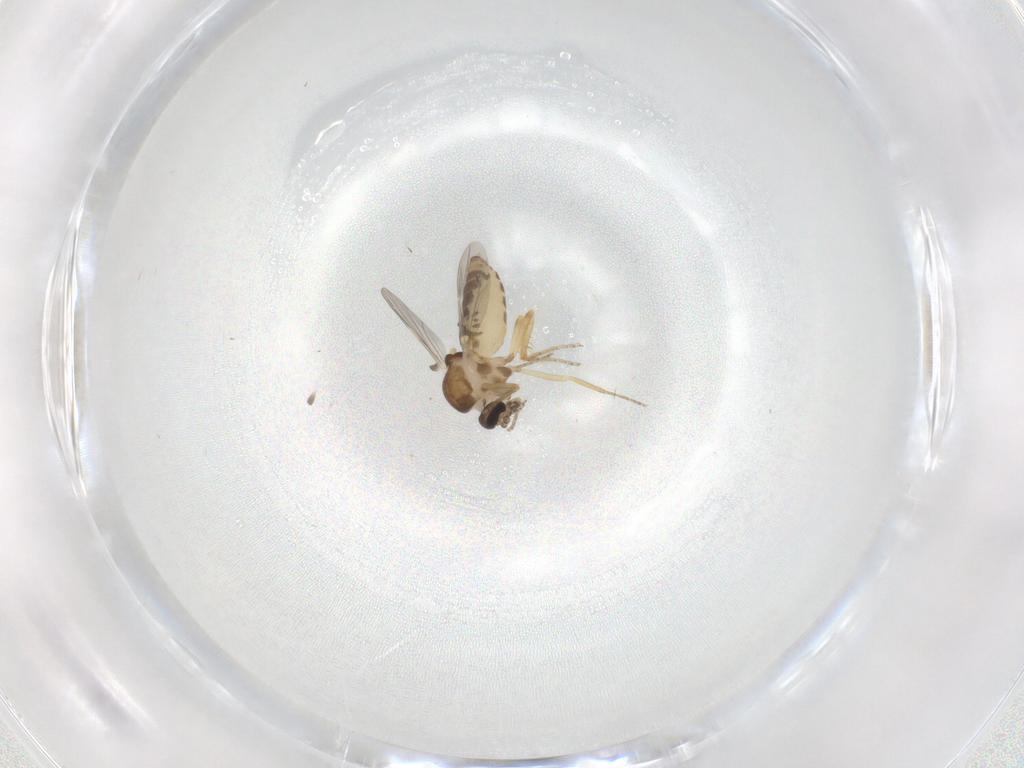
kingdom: Animalia
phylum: Arthropoda
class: Insecta
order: Diptera
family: Ceratopogonidae
